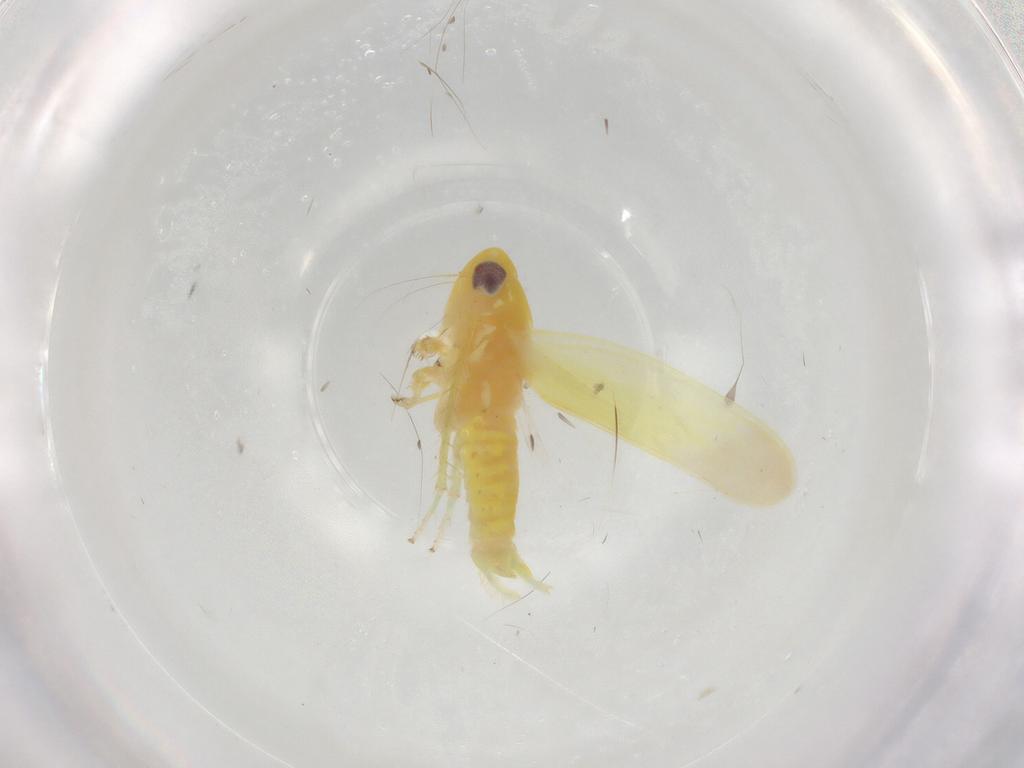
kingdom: Animalia
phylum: Arthropoda
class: Insecta
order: Hemiptera
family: Cicadellidae
